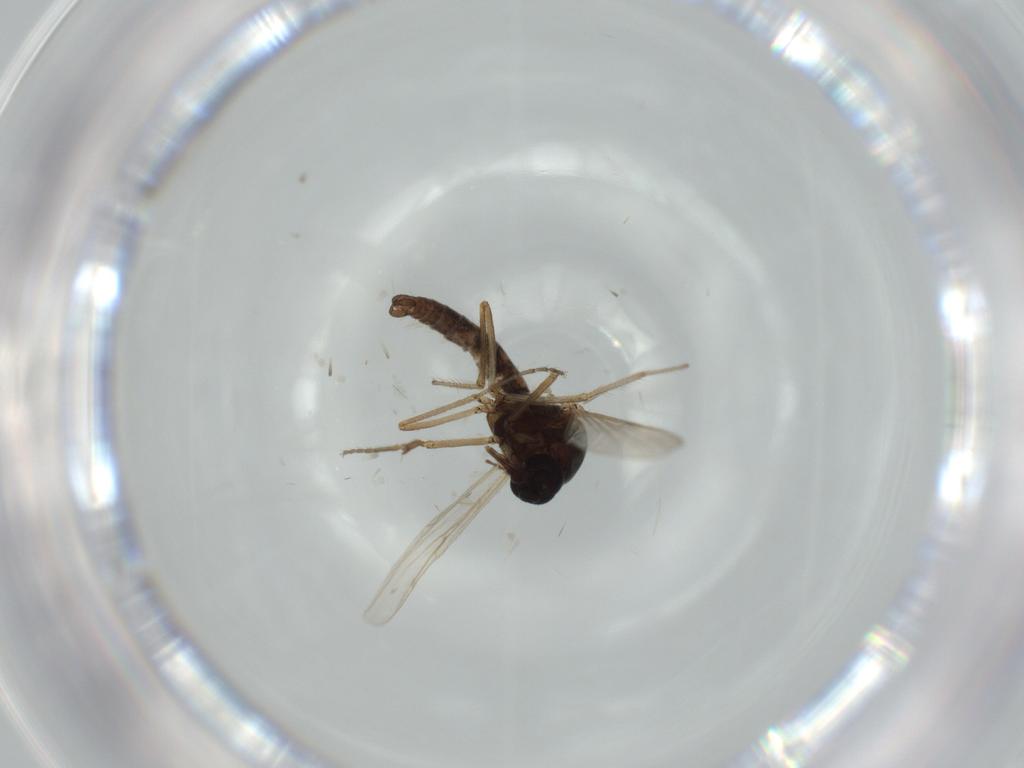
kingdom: Animalia
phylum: Arthropoda
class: Insecta
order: Diptera
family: Ceratopogonidae
